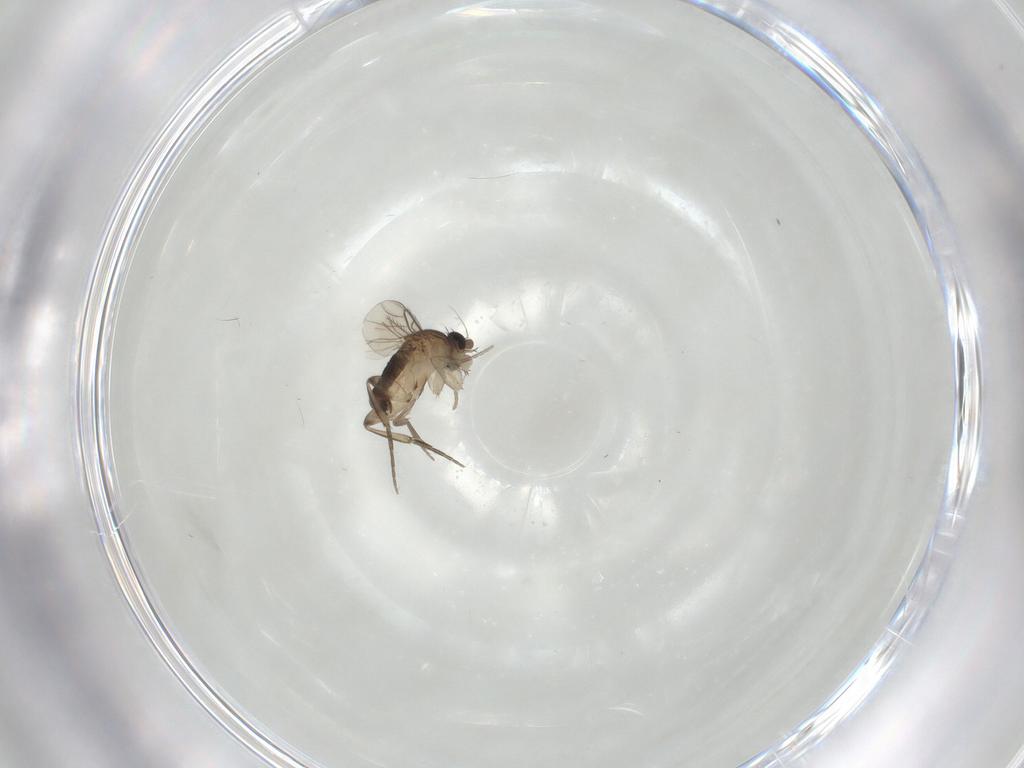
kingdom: Animalia
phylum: Arthropoda
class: Insecta
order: Diptera
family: Phoridae
